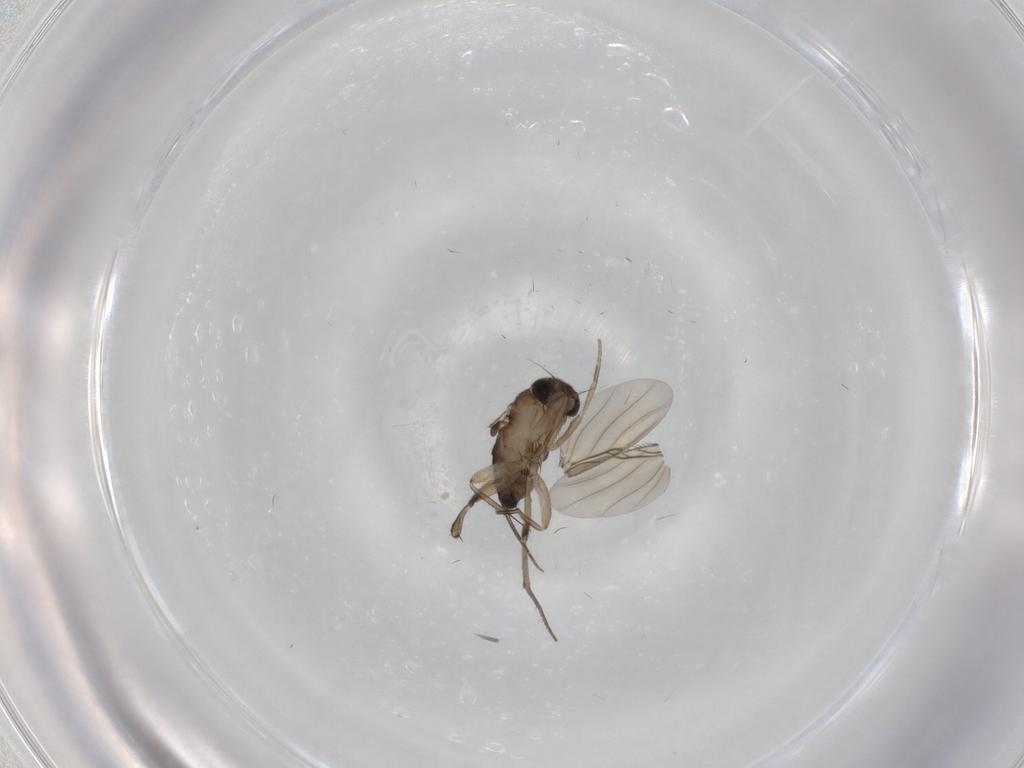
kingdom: Animalia
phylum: Arthropoda
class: Insecta
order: Diptera
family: Phoridae
